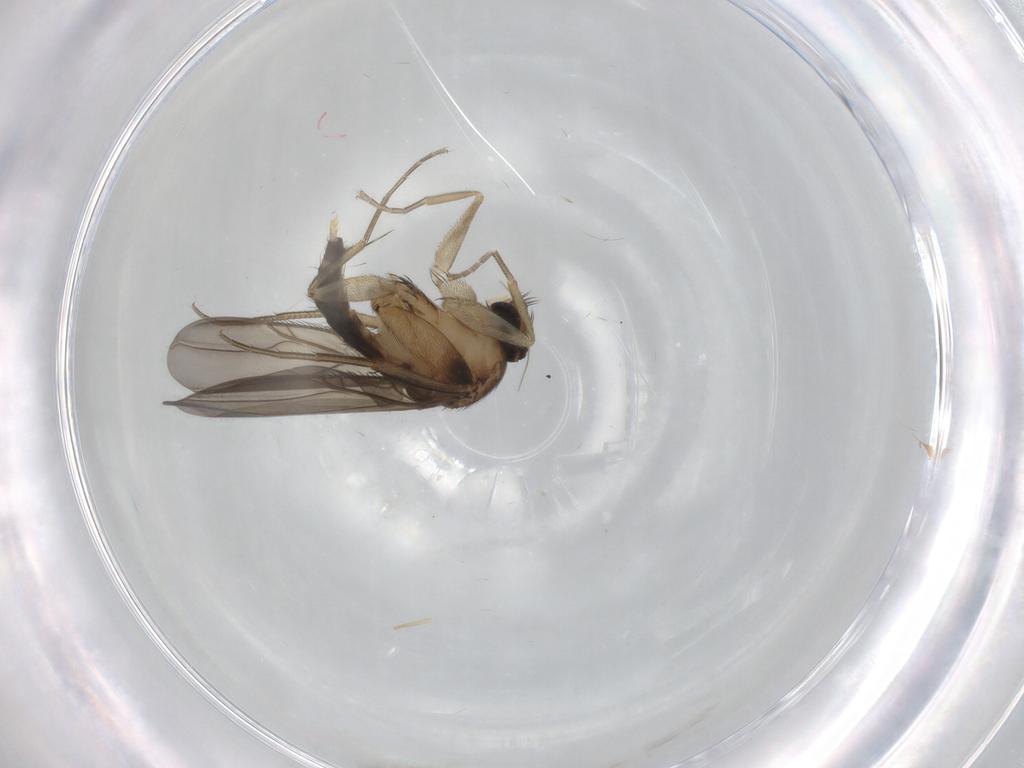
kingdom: Animalia
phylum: Arthropoda
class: Insecta
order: Diptera
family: Phoridae
